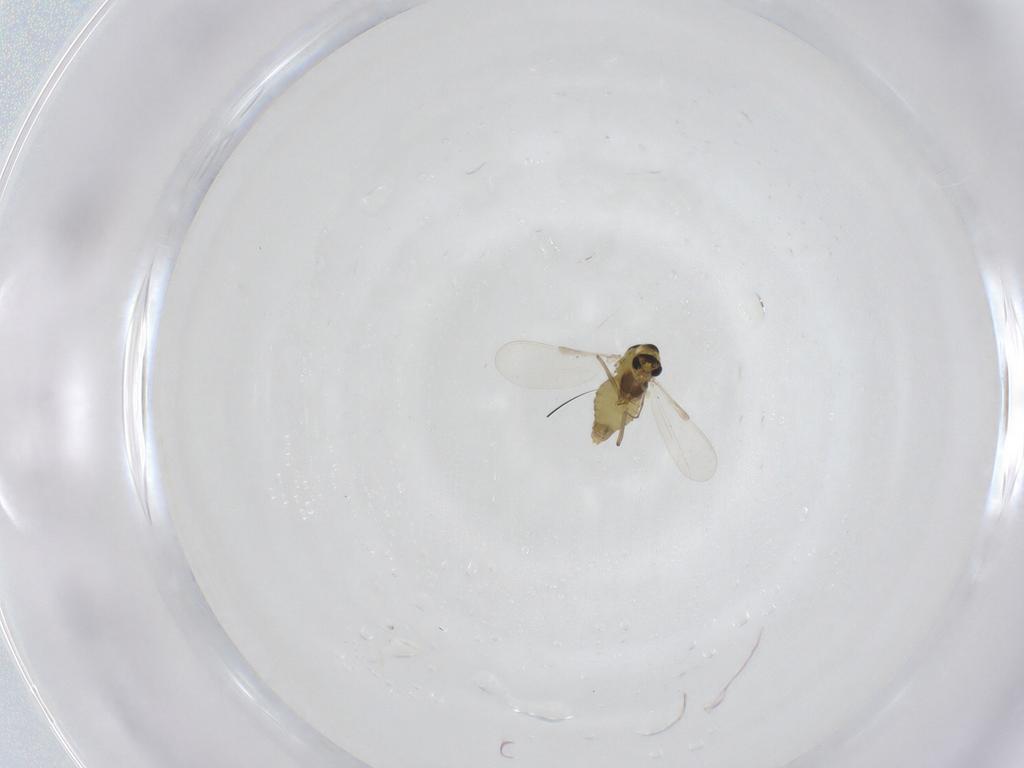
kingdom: Animalia
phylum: Arthropoda
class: Insecta
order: Diptera
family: Chironomidae
